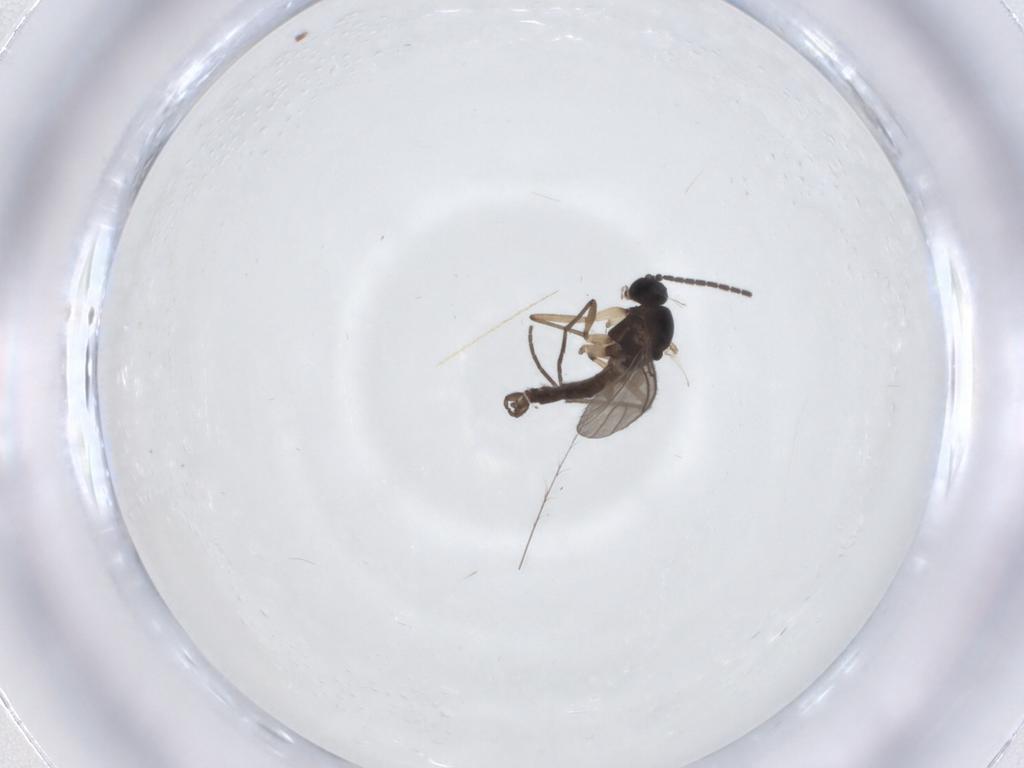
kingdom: Animalia
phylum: Arthropoda
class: Insecta
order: Diptera
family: Sciaridae
